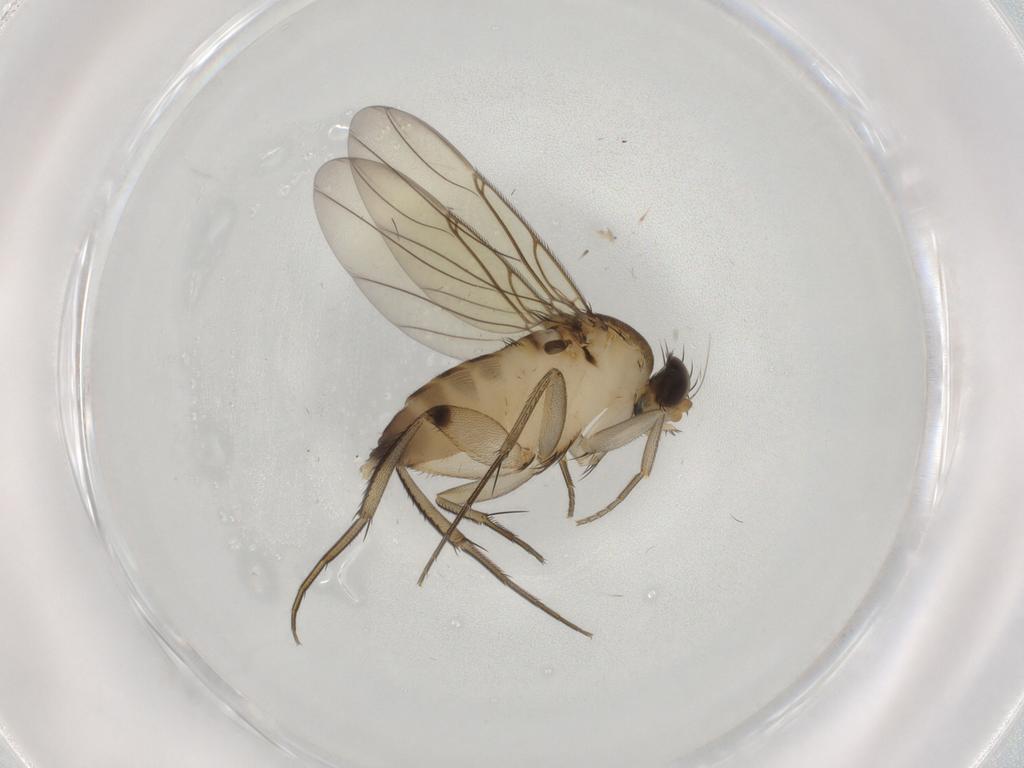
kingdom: Animalia
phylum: Arthropoda
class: Insecta
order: Diptera
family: Phoridae
